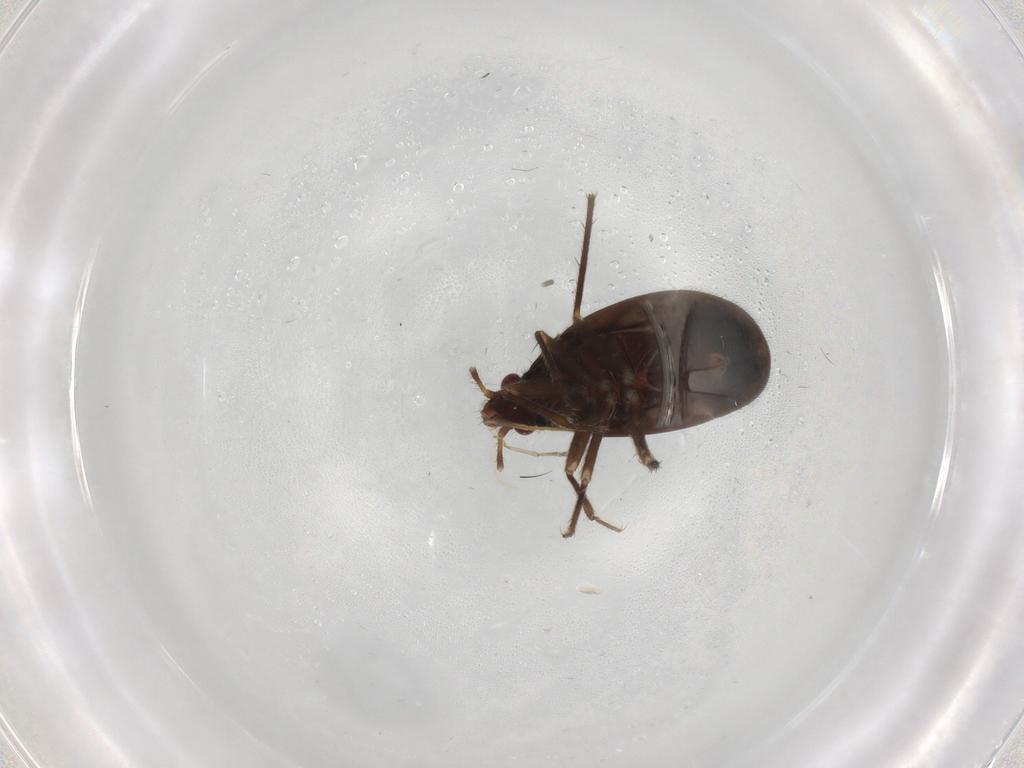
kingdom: Animalia
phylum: Arthropoda
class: Insecta
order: Hemiptera
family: Ceratocombidae
